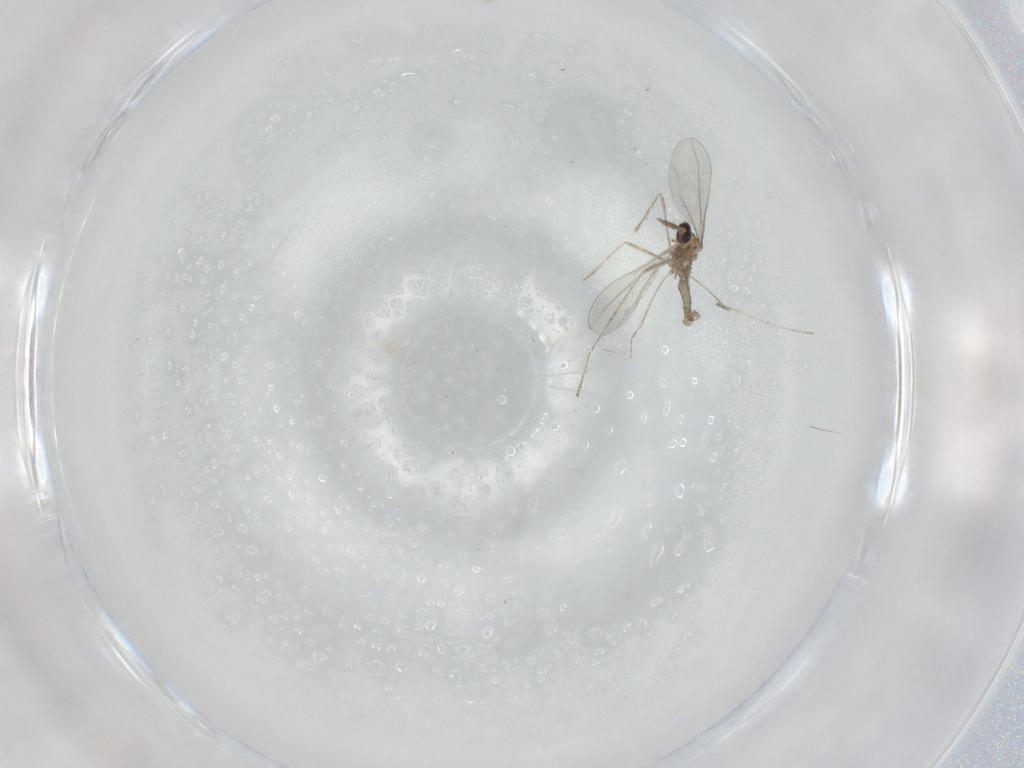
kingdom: Animalia
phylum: Arthropoda
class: Insecta
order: Diptera
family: Cecidomyiidae
